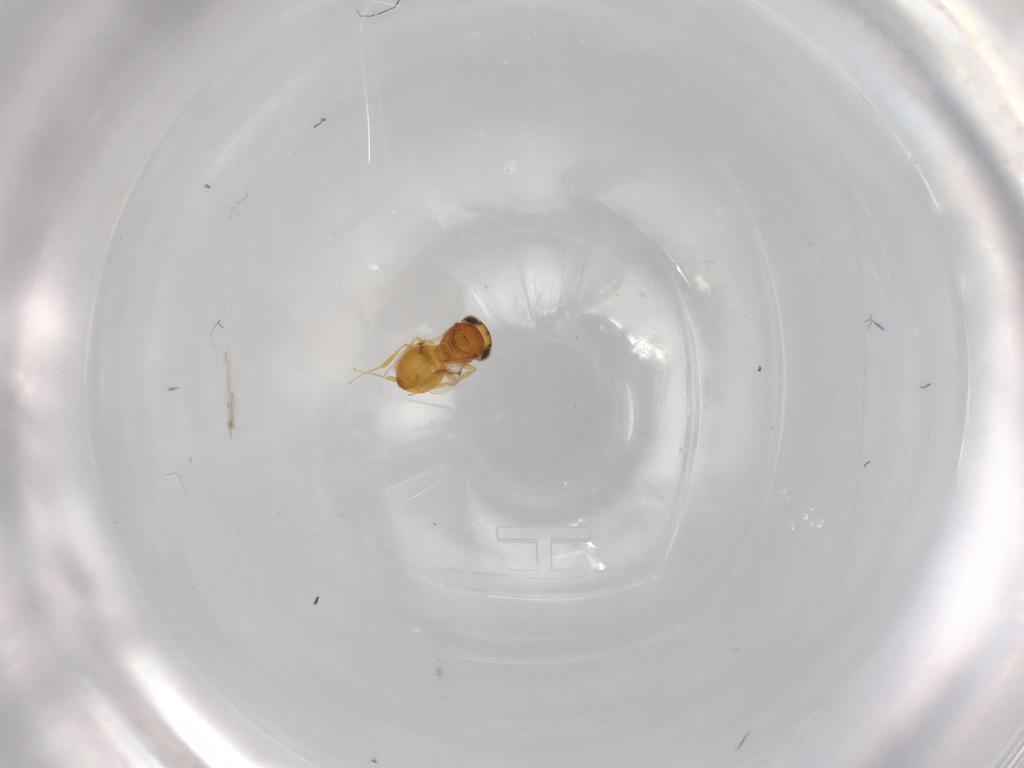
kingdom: Animalia
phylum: Arthropoda
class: Insecta
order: Hymenoptera
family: Scelionidae
